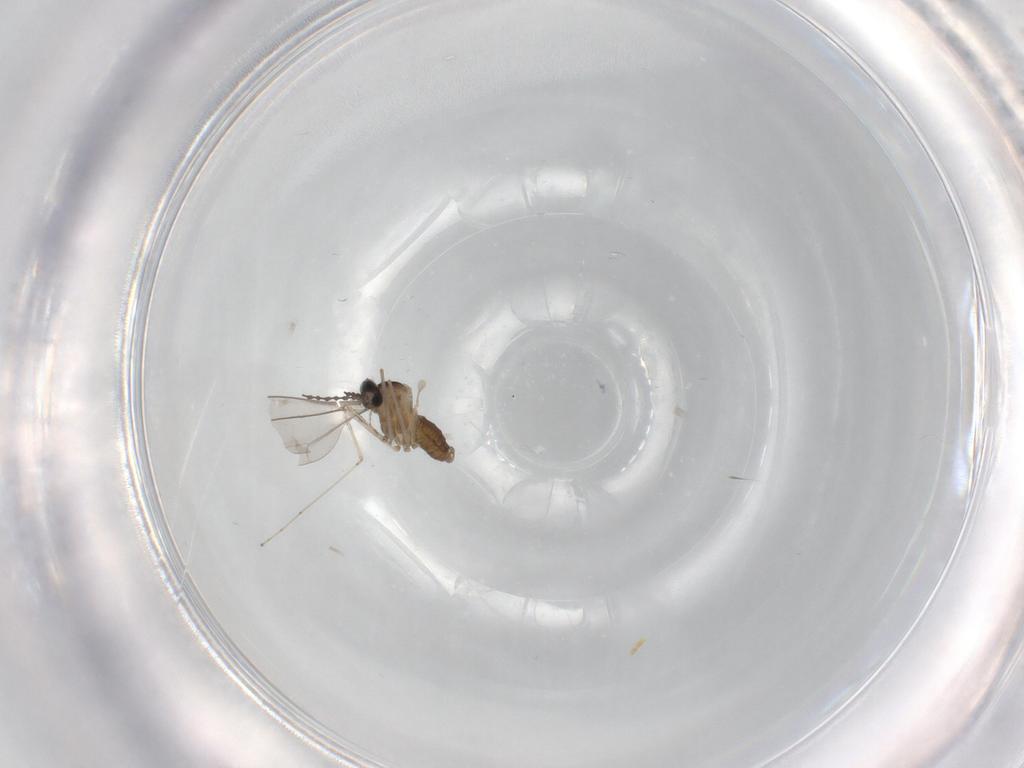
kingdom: Animalia
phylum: Arthropoda
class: Insecta
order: Diptera
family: Cecidomyiidae
